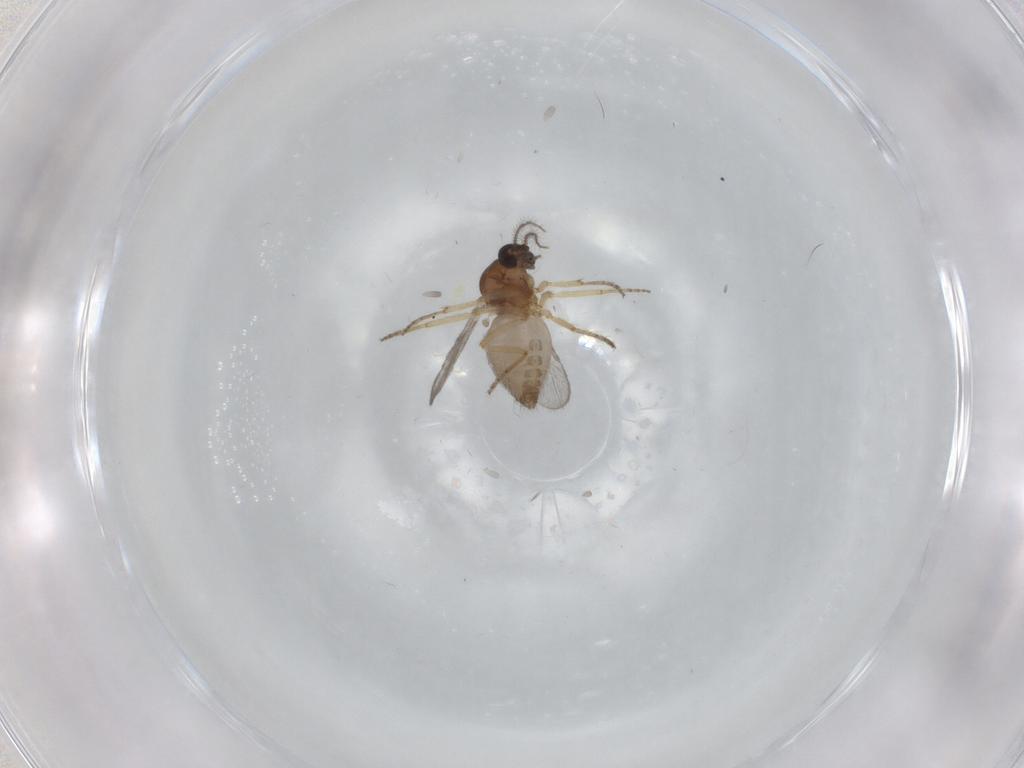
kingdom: Animalia
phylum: Arthropoda
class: Insecta
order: Diptera
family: Ceratopogonidae
